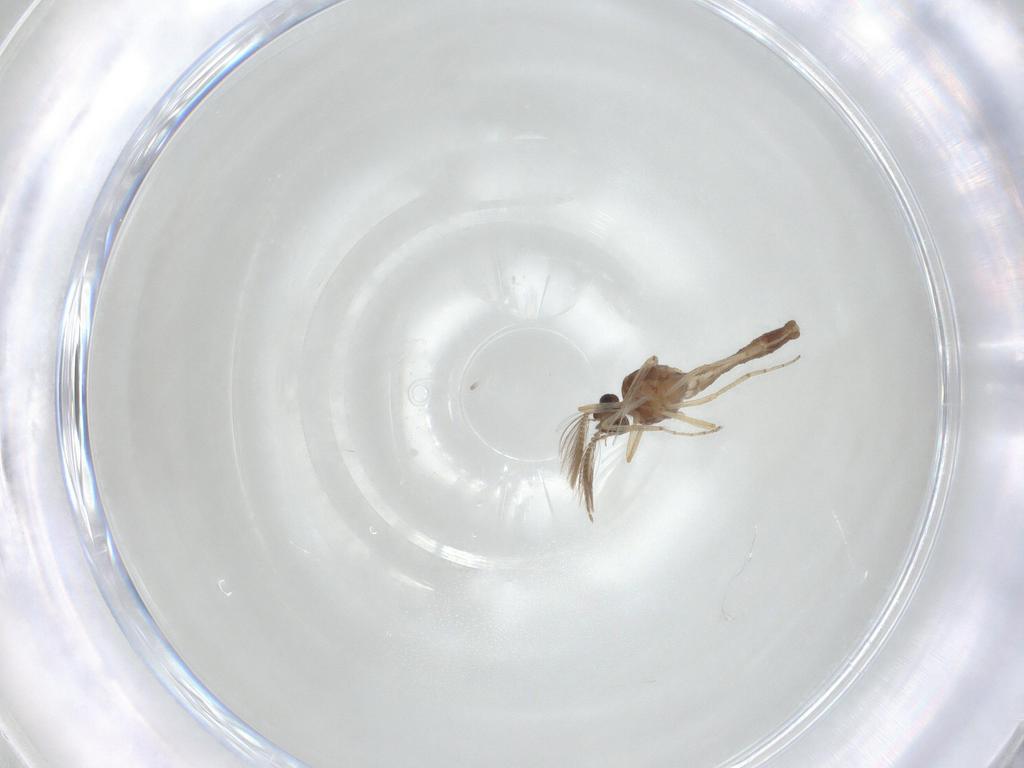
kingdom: Animalia
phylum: Arthropoda
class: Insecta
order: Diptera
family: Ceratopogonidae
